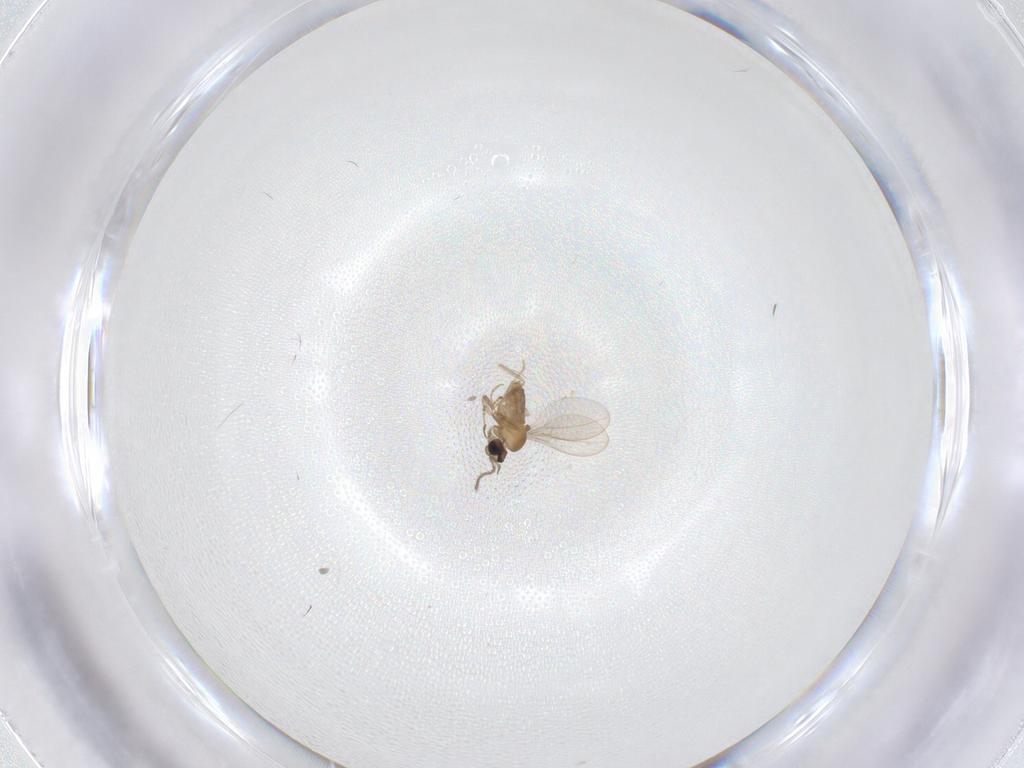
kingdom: Animalia
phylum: Arthropoda
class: Insecta
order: Diptera
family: Cecidomyiidae
